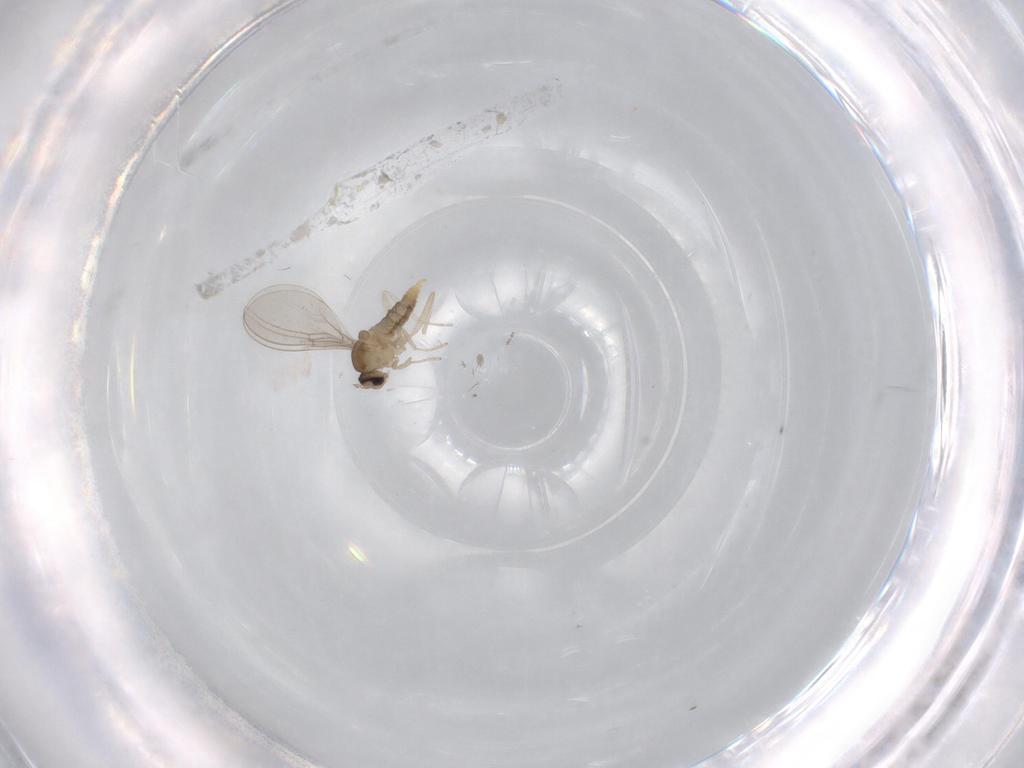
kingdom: Animalia
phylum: Arthropoda
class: Insecta
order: Diptera
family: Cecidomyiidae
